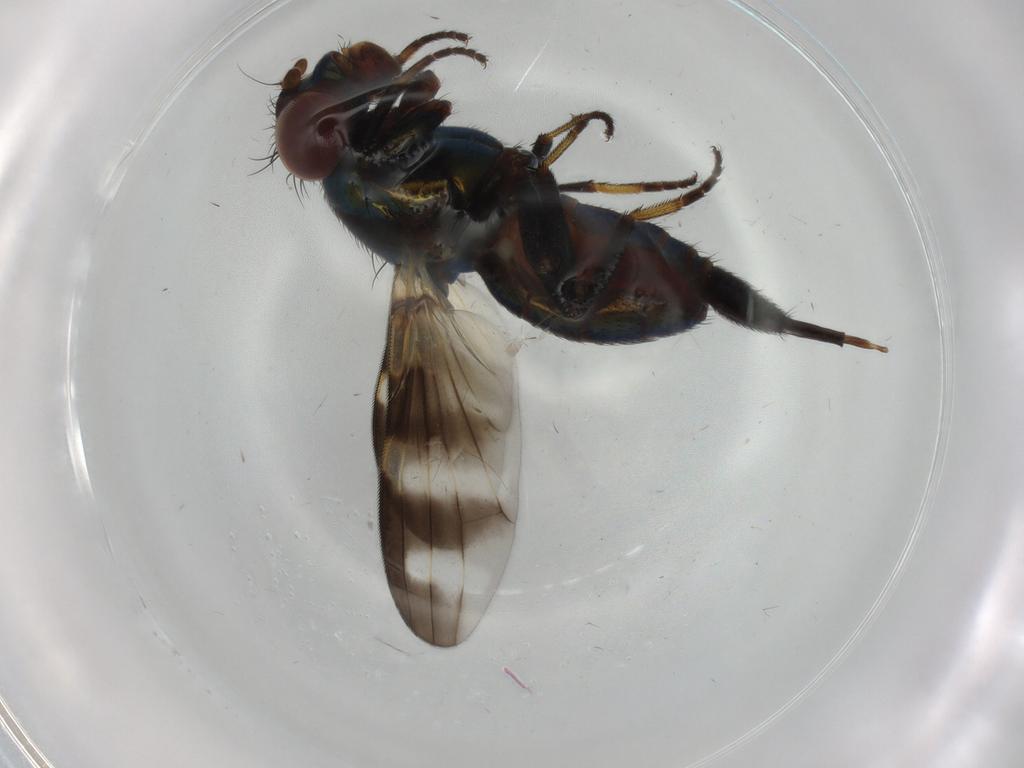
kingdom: Animalia
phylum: Arthropoda
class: Insecta
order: Diptera
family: Ulidiidae
